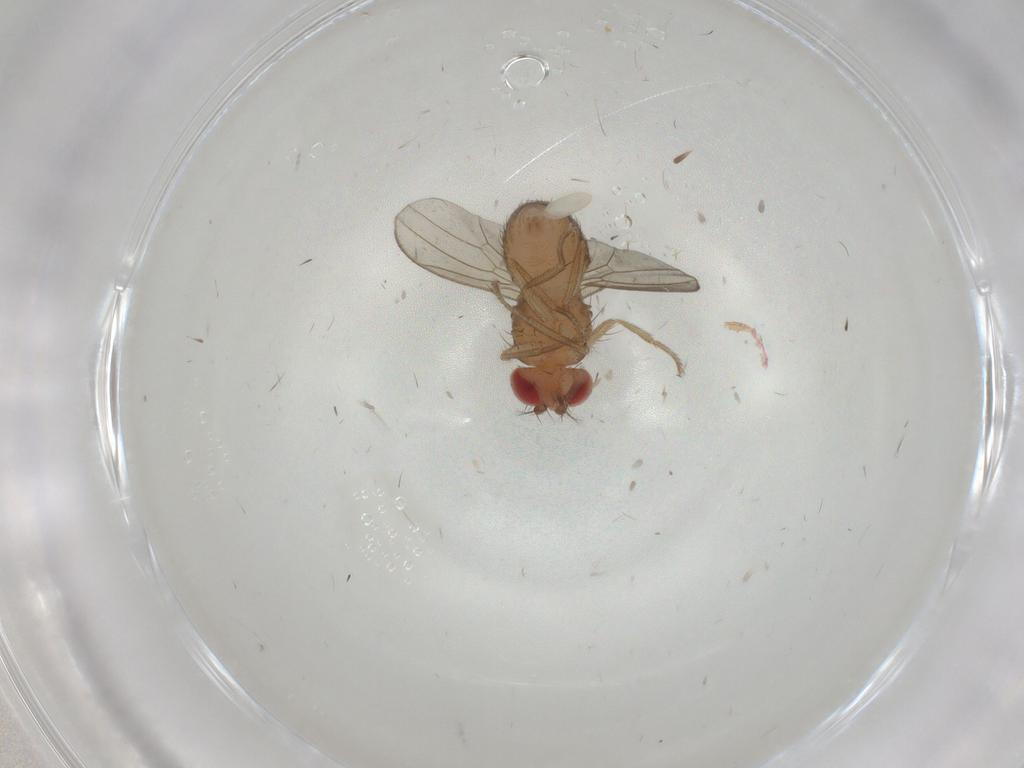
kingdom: Animalia
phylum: Arthropoda
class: Insecta
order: Diptera
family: Drosophilidae
